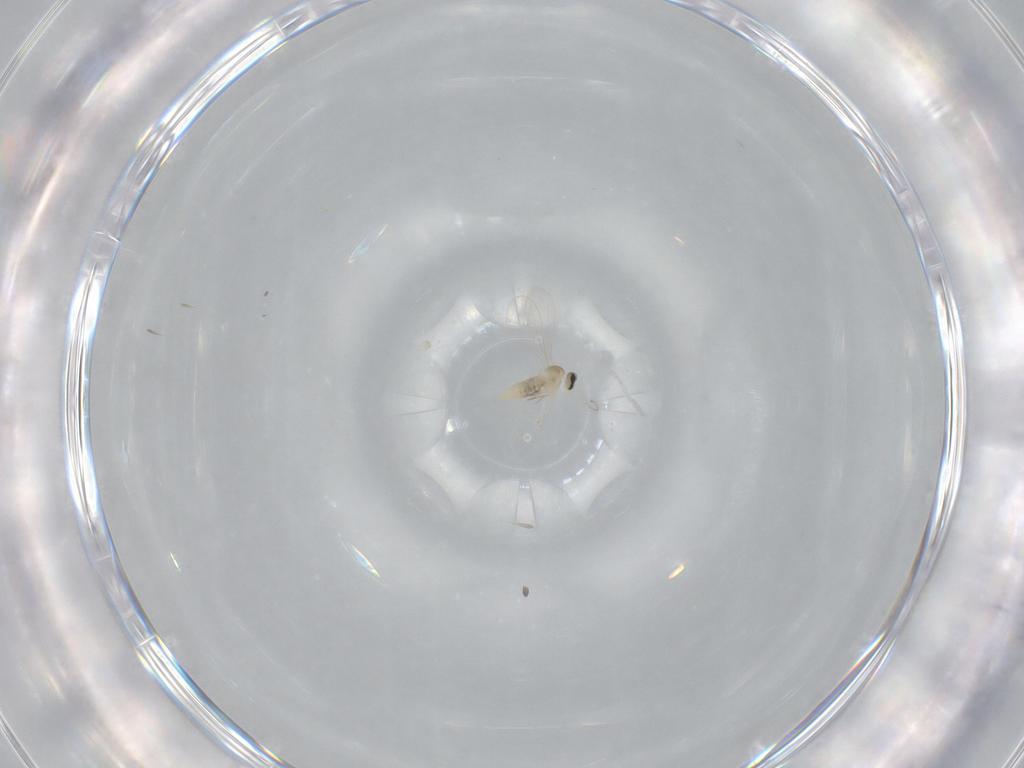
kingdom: Animalia
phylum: Arthropoda
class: Insecta
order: Diptera
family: Cecidomyiidae
